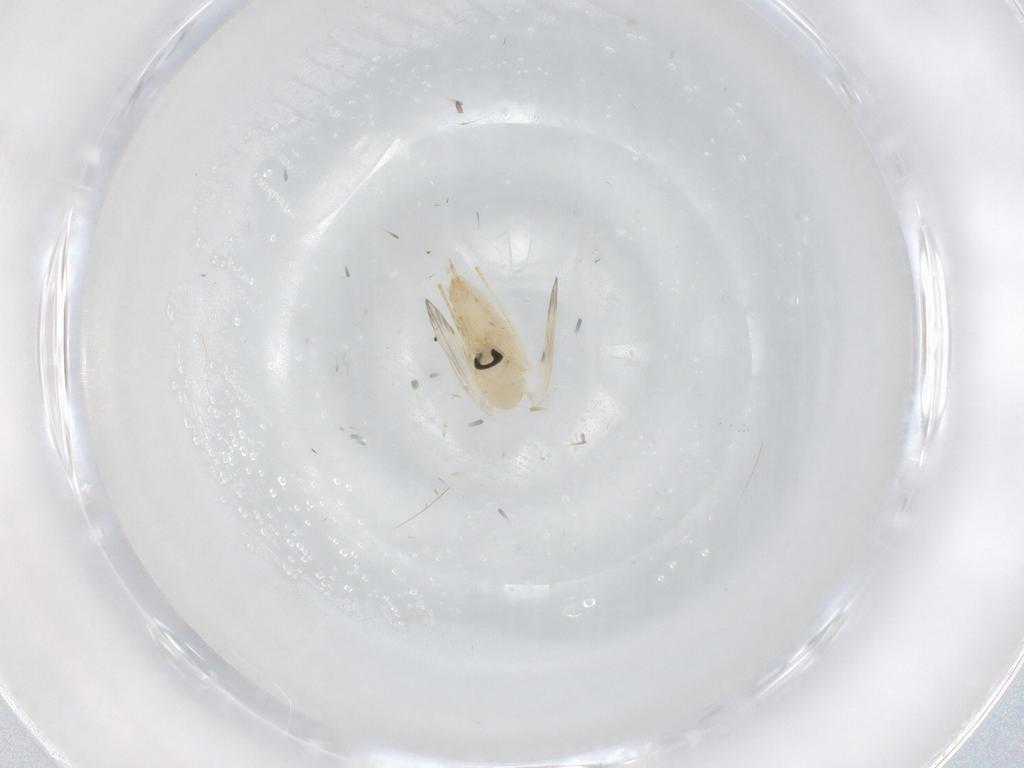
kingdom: Animalia
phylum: Arthropoda
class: Insecta
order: Diptera
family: Psychodidae
